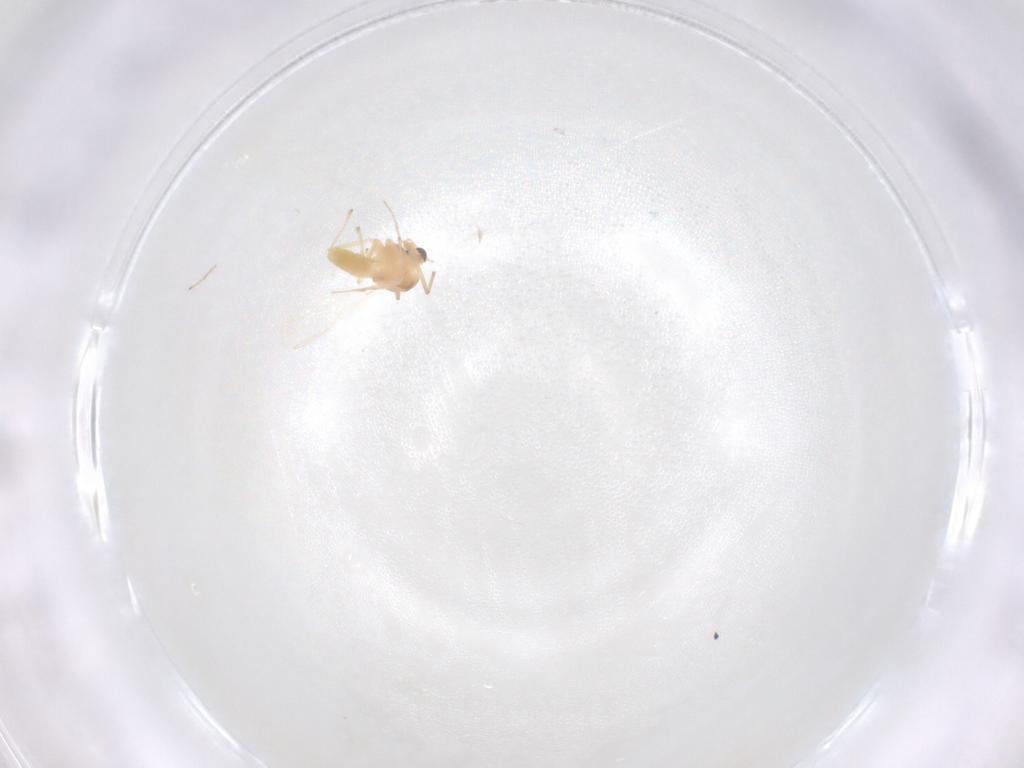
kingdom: Animalia
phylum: Arthropoda
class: Insecta
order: Diptera
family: Chironomidae
